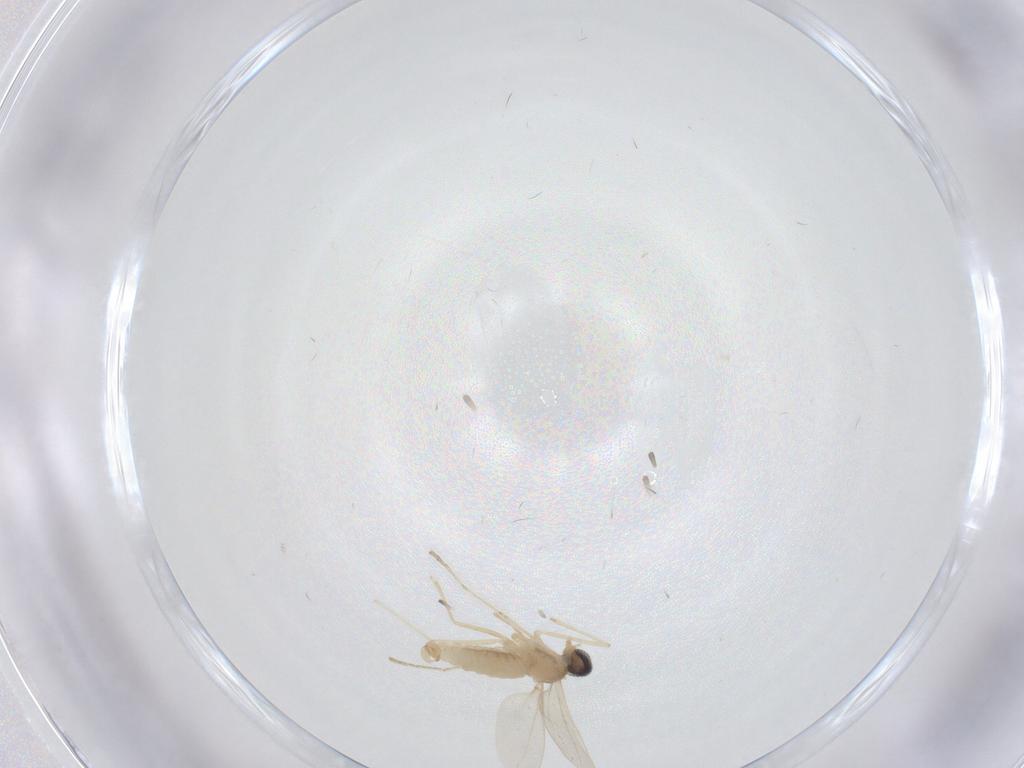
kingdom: Animalia
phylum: Arthropoda
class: Insecta
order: Diptera
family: Cecidomyiidae
